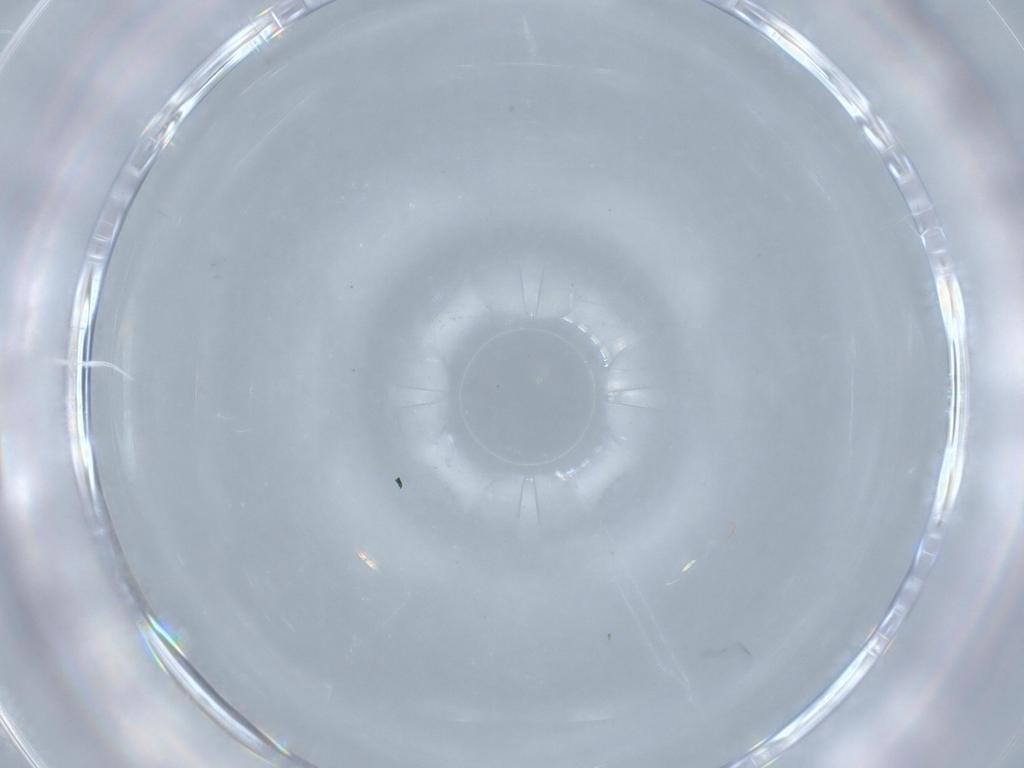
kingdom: Animalia
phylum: Arthropoda
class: Insecta
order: Hemiptera
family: Aleyrodidae
